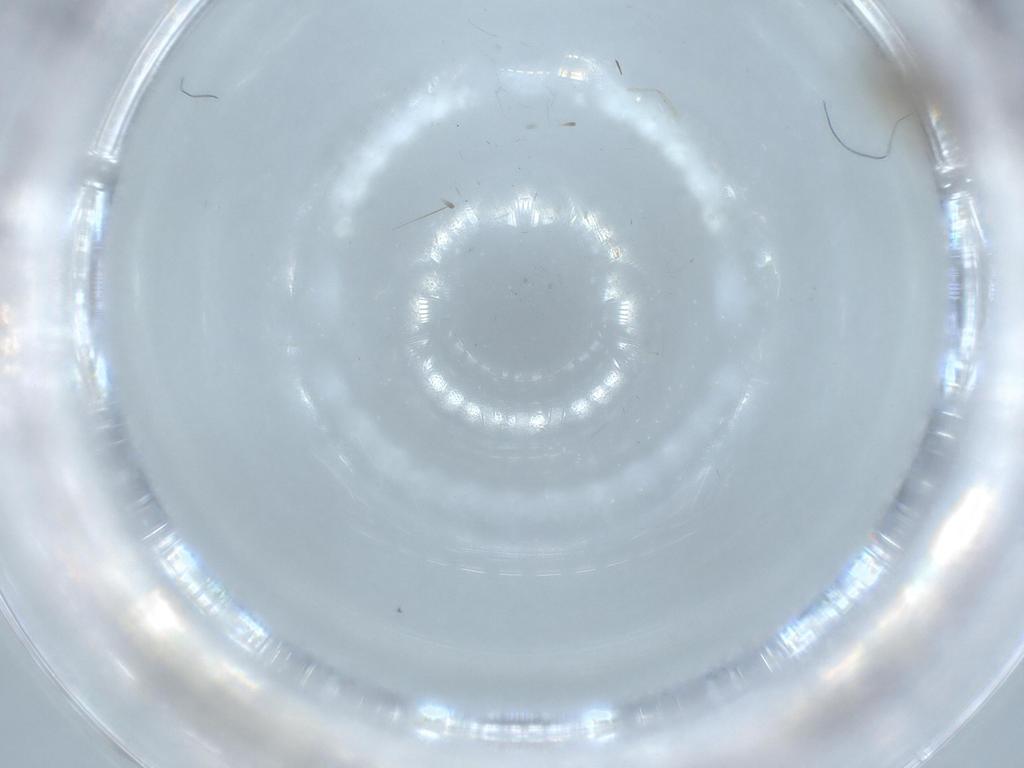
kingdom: Animalia
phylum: Arthropoda
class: Insecta
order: Diptera
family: Chironomidae
